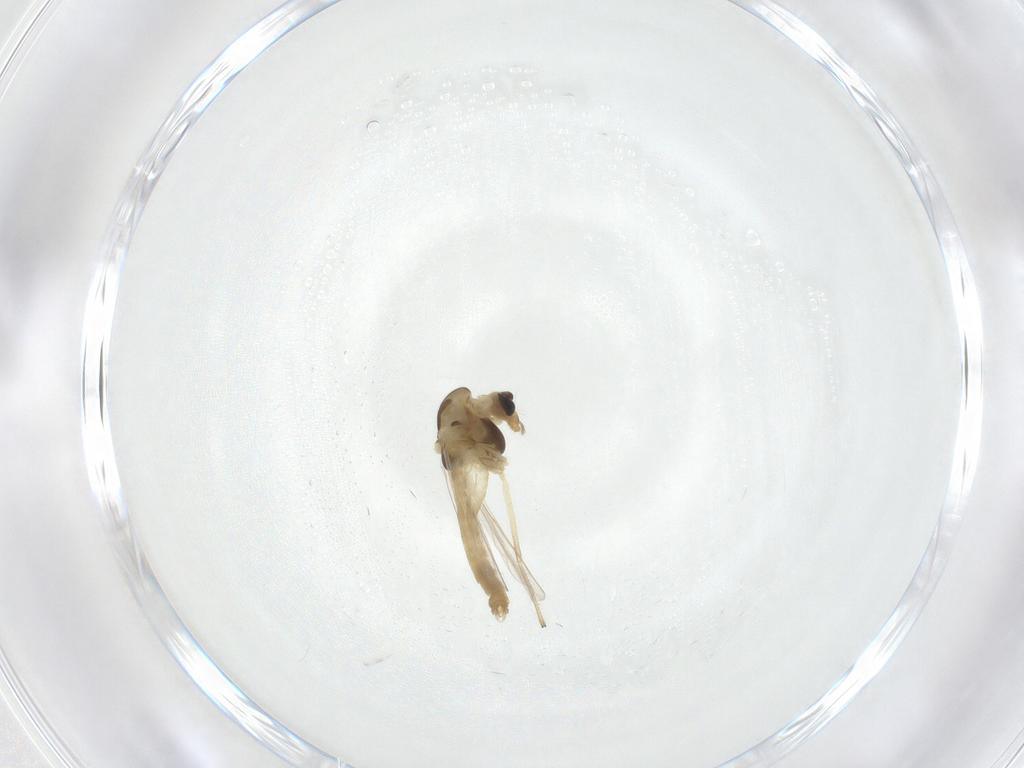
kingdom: Animalia
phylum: Arthropoda
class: Insecta
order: Diptera
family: Chironomidae
